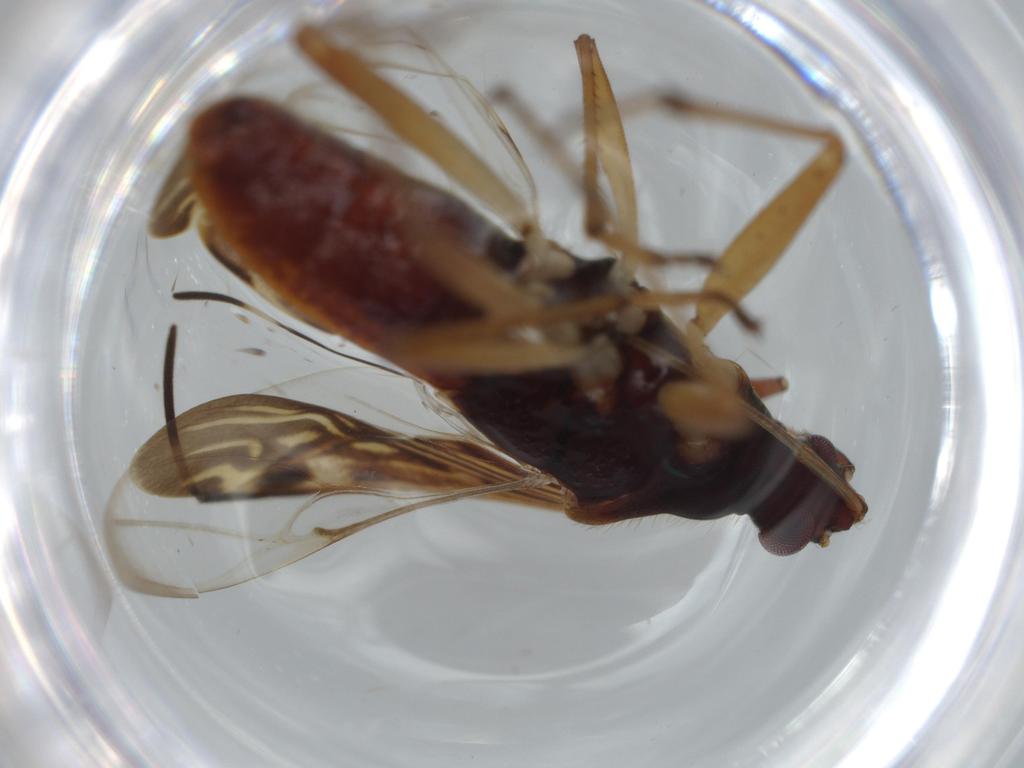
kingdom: Animalia
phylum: Arthropoda
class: Insecta
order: Hemiptera
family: Rhyparochromidae
